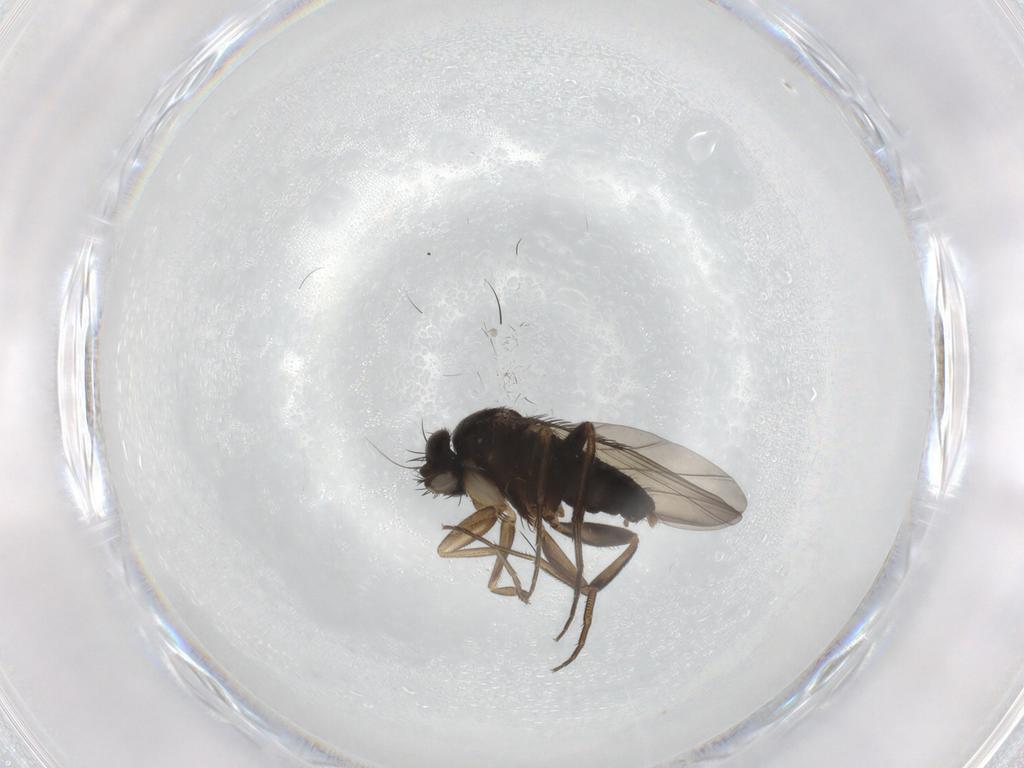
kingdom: Animalia
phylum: Arthropoda
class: Insecta
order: Diptera
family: Phoridae
